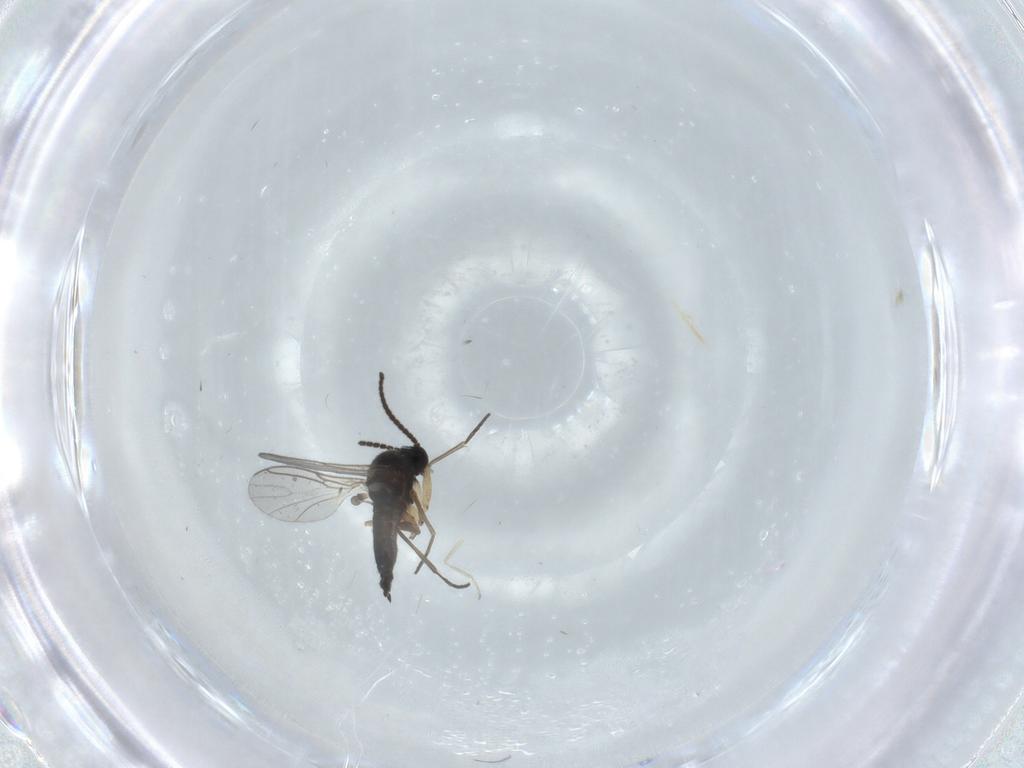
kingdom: Animalia
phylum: Arthropoda
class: Insecta
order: Diptera
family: Sciaridae
